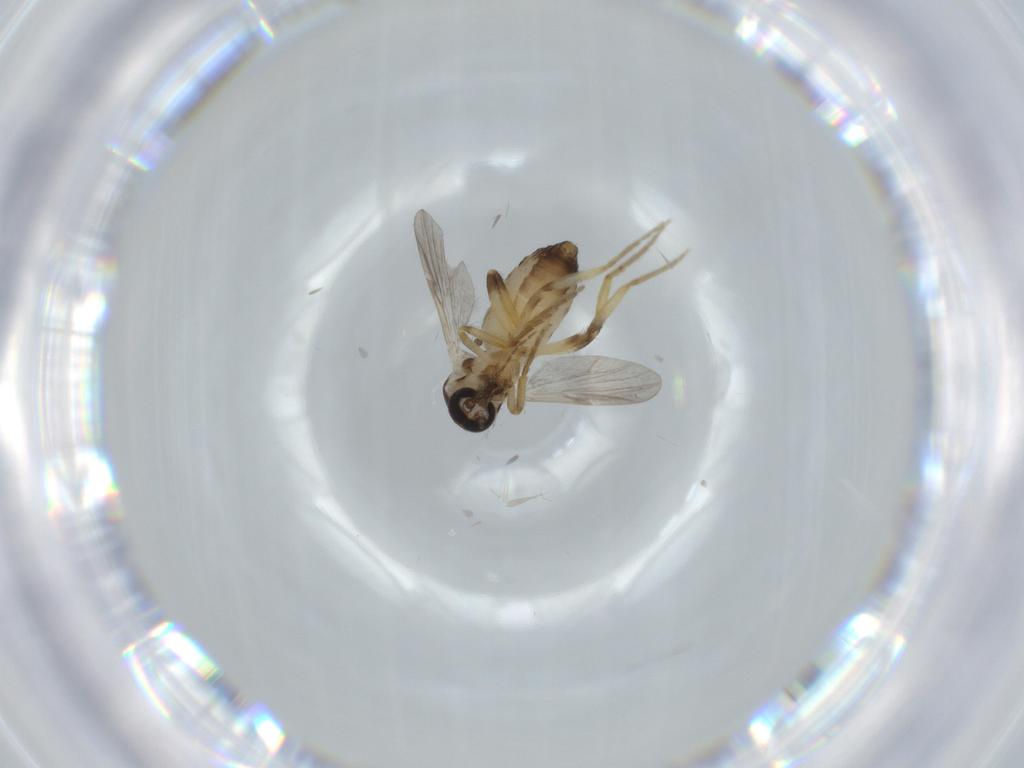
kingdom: Animalia
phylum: Arthropoda
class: Insecta
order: Diptera
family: Ceratopogonidae
